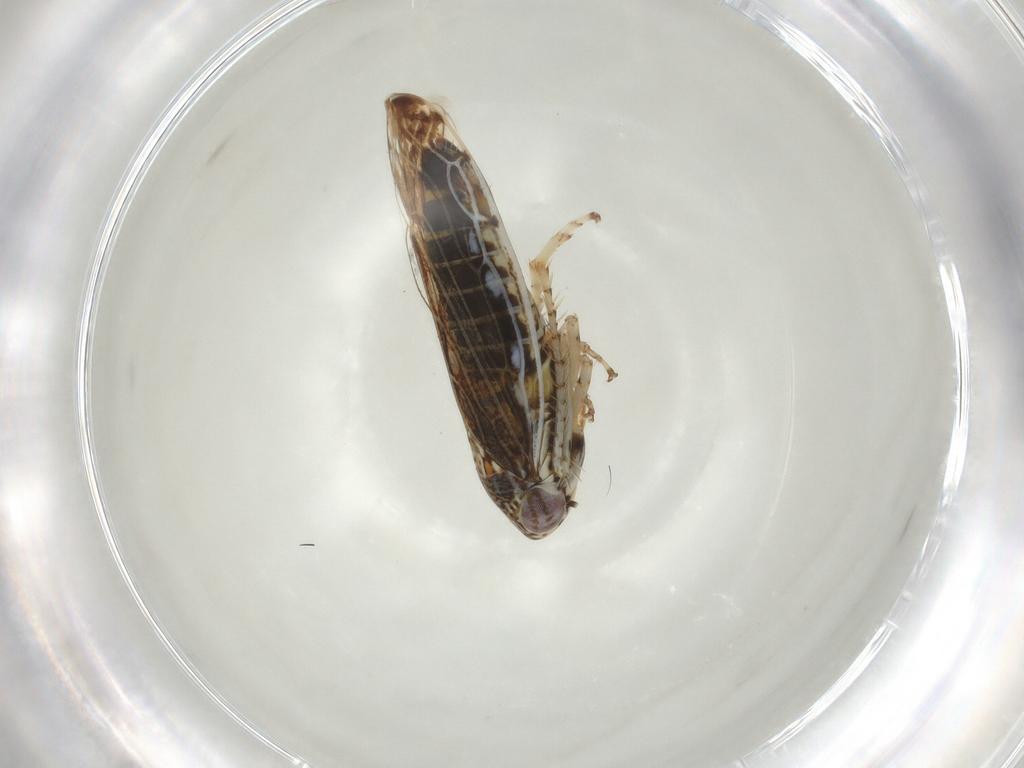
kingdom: Animalia
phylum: Arthropoda
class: Insecta
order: Hemiptera
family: Cicadellidae
